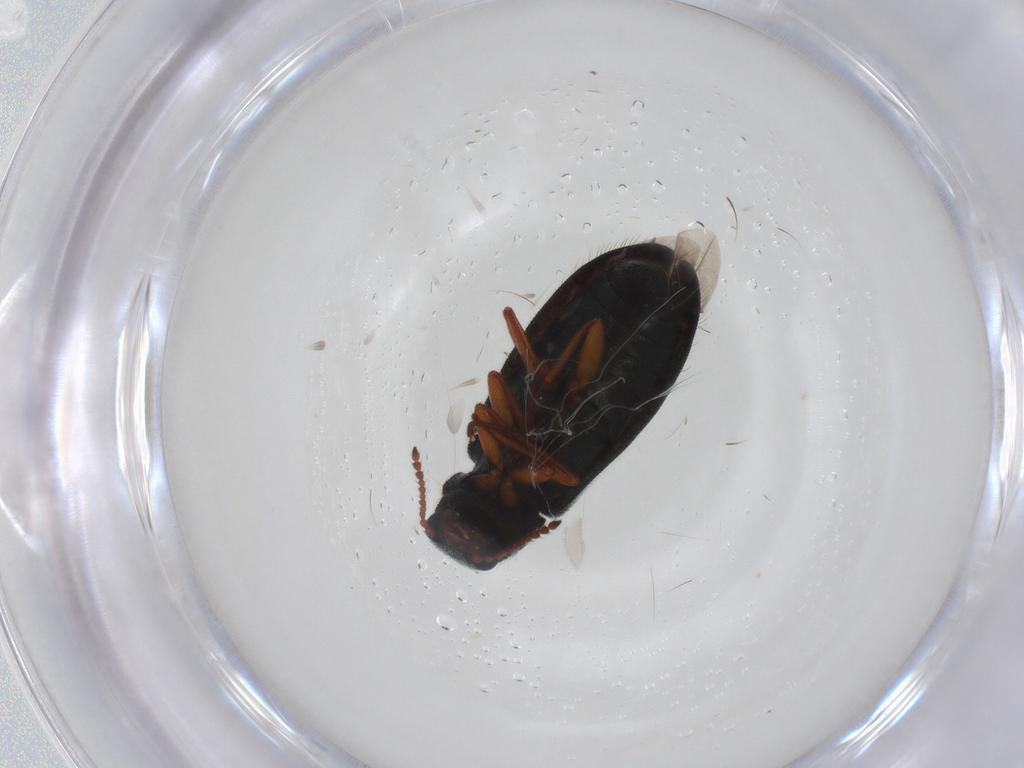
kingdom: Animalia
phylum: Arthropoda
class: Insecta
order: Coleoptera
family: Melyridae
